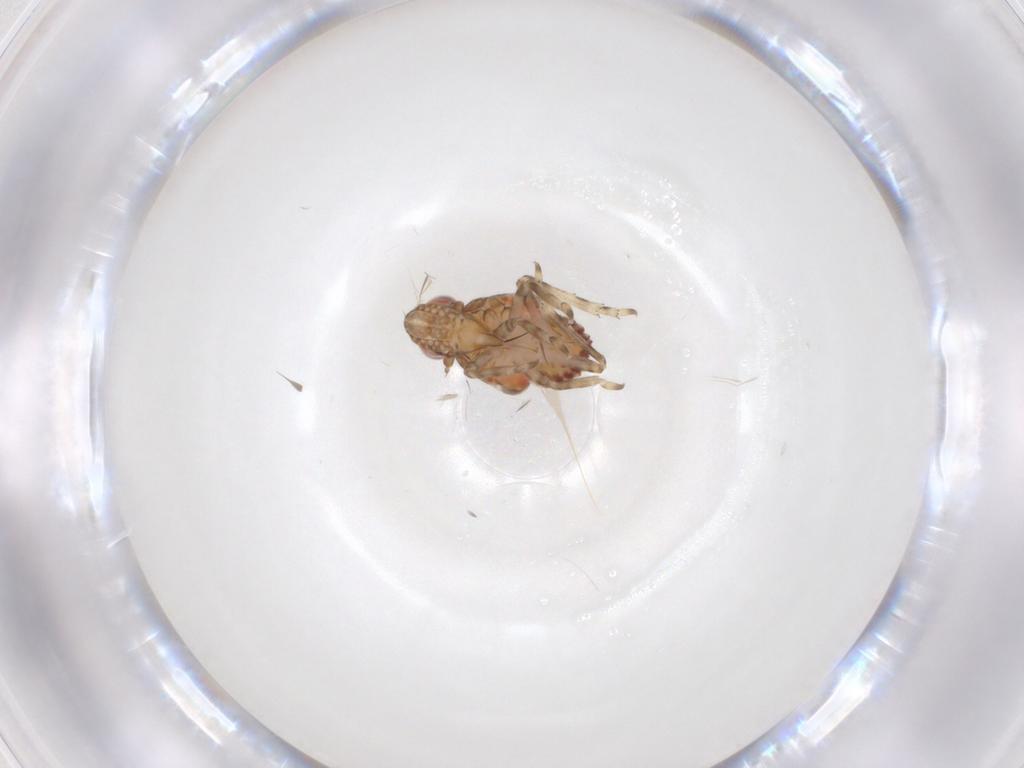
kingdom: Animalia
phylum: Arthropoda
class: Insecta
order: Hemiptera
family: Tropiduchidae
